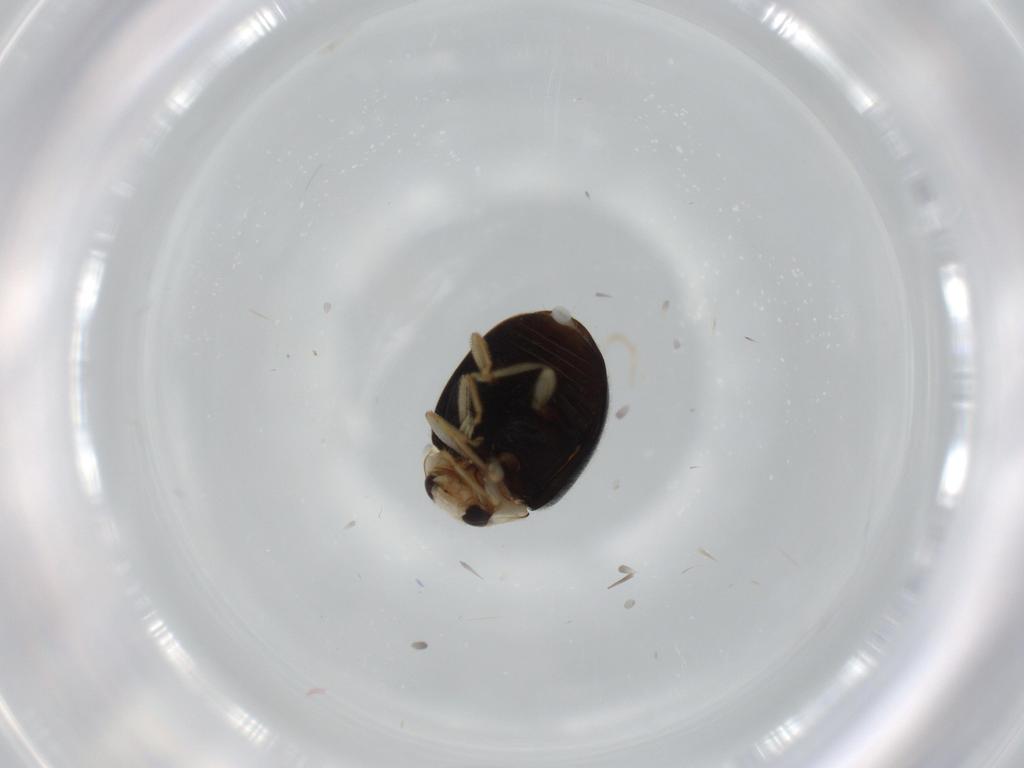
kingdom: Animalia
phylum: Arthropoda
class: Insecta
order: Coleoptera
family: Coccinellidae
